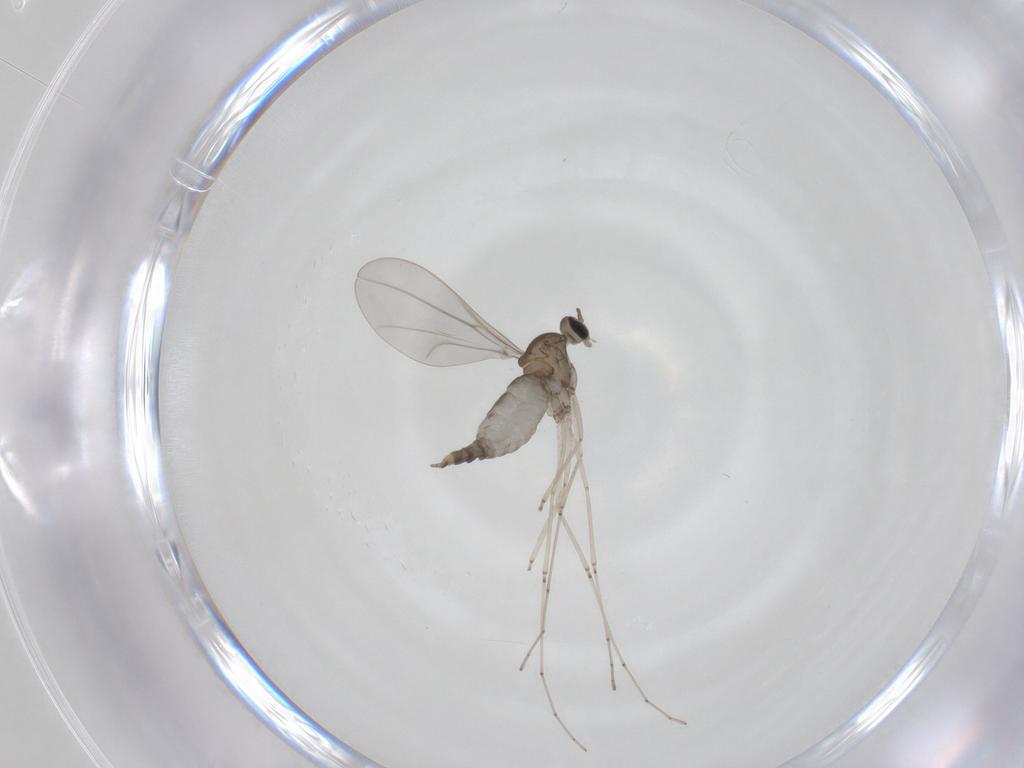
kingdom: Animalia
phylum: Arthropoda
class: Insecta
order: Diptera
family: Cecidomyiidae
